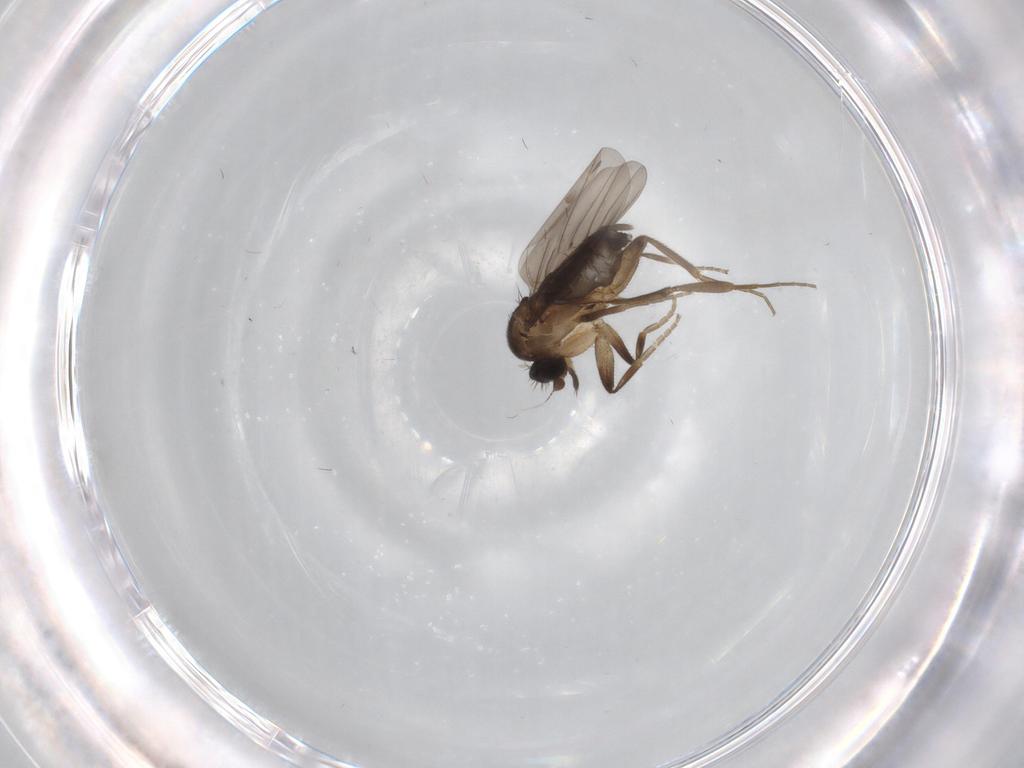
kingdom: Animalia
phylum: Arthropoda
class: Insecta
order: Diptera
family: Phoridae
